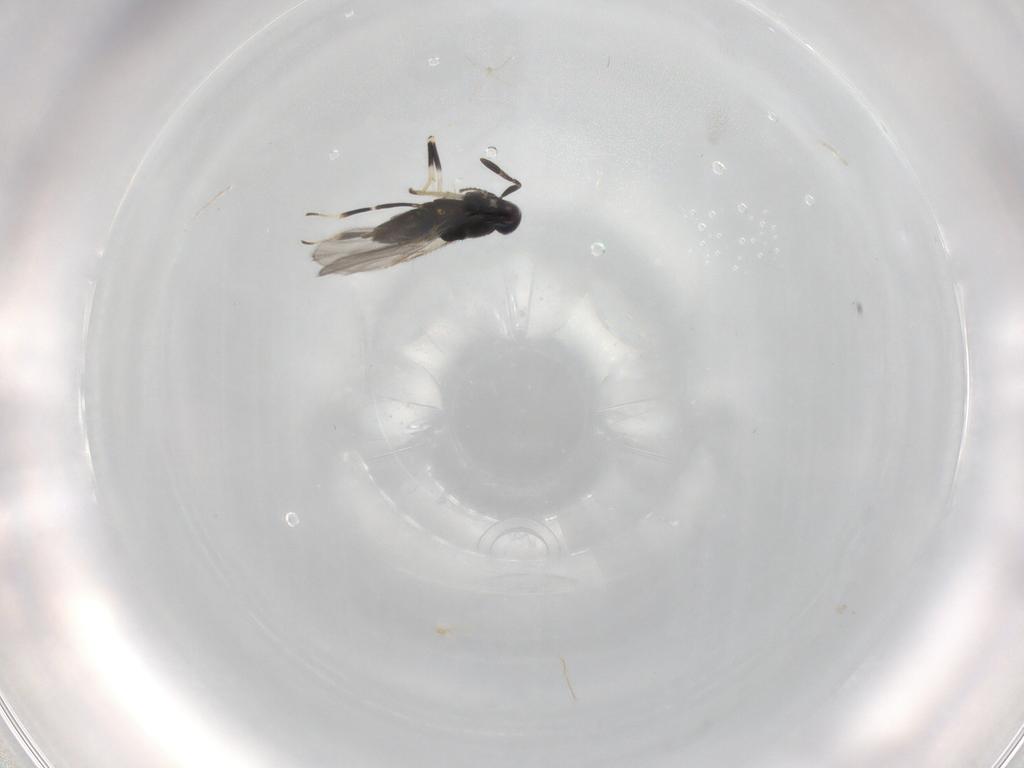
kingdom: Animalia
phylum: Arthropoda
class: Insecta
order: Hymenoptera
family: Encyrtidae
